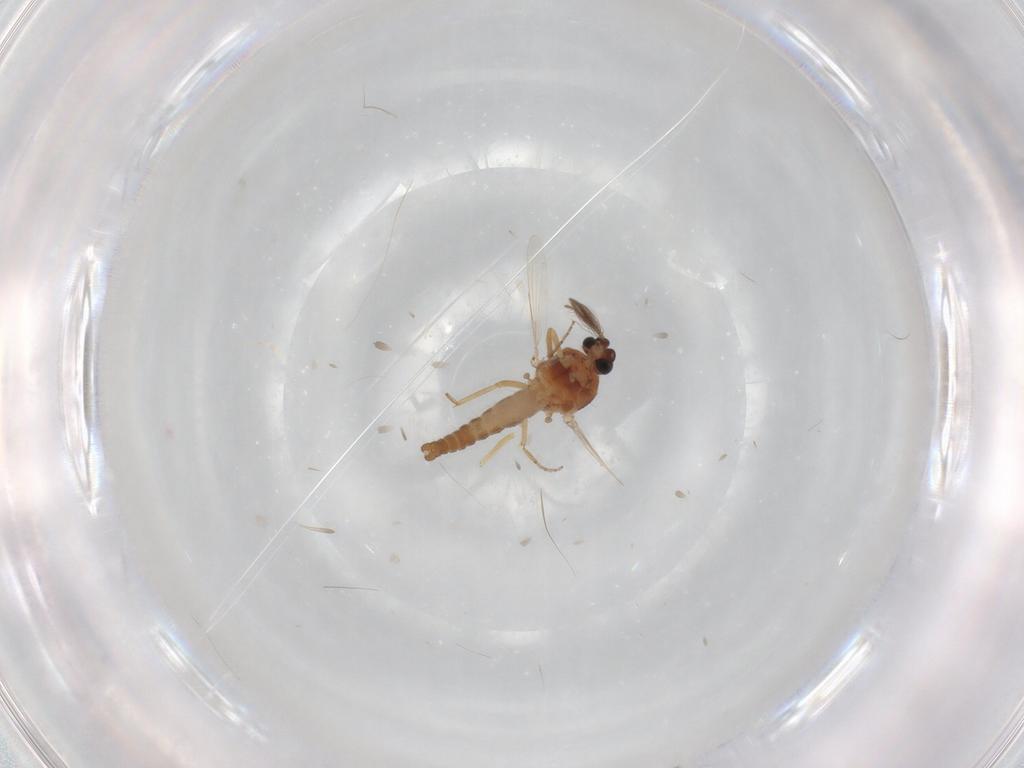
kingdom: Animalia
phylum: Arthropoda
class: Insecta
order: Diptera
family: Ceratopogonidae
